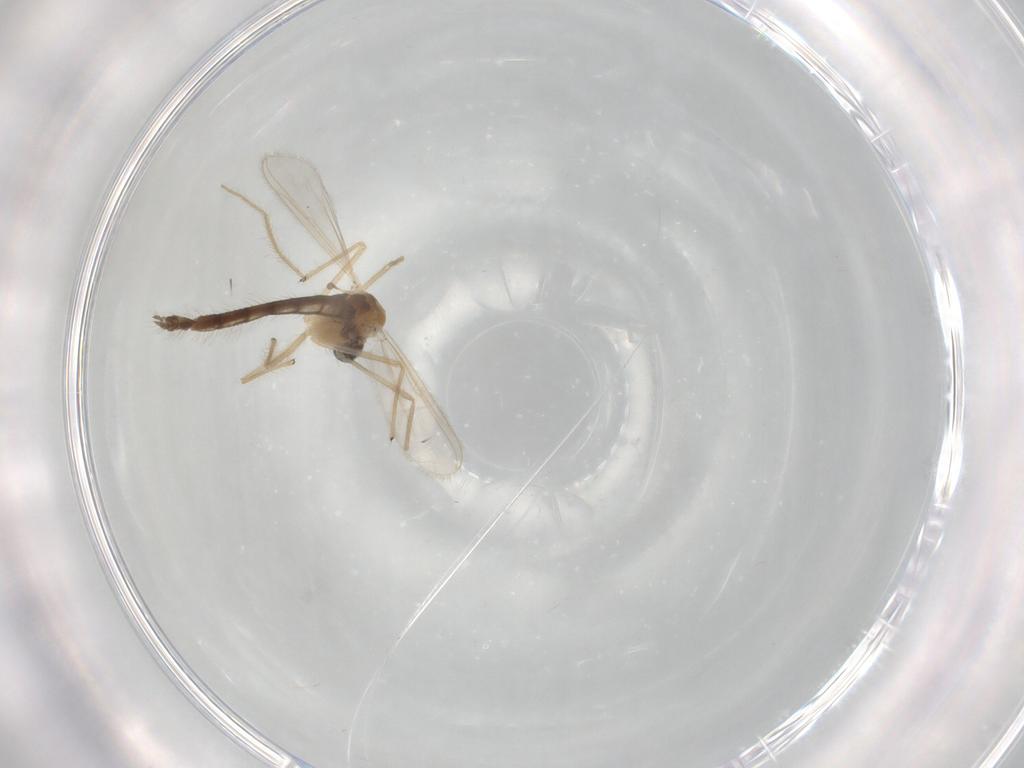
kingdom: Animalia
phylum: Arthropoda
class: Insecta
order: Diptera
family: Chironomidae
